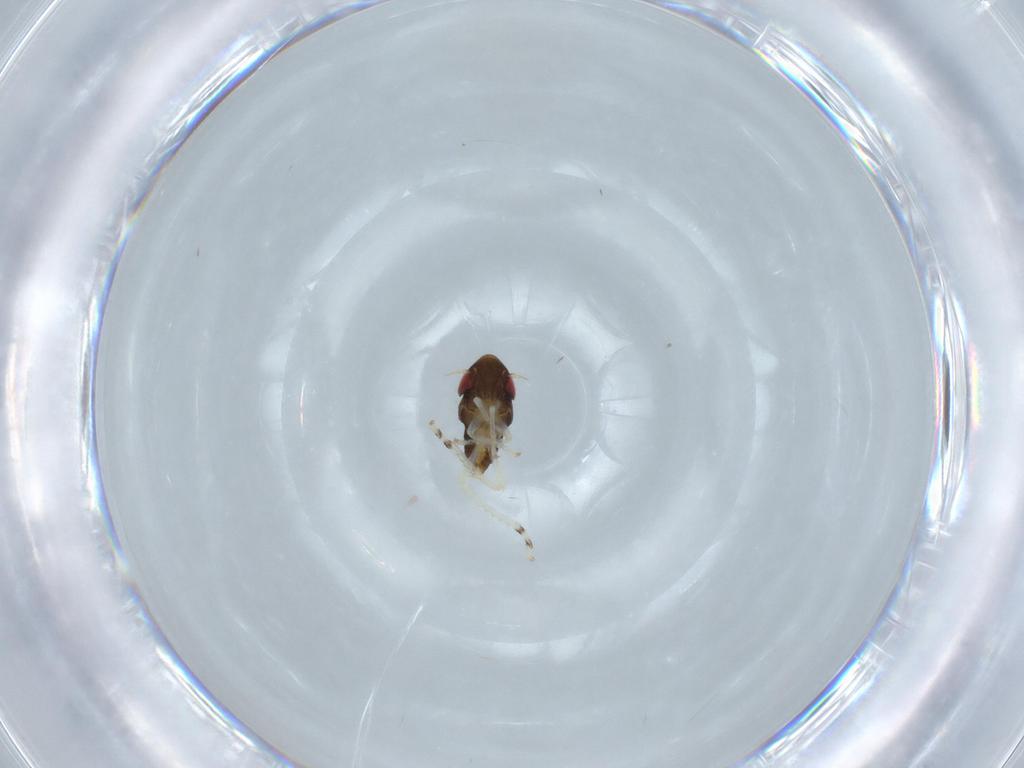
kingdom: Animalia
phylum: Arthropoda
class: Insecta
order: Hemiptera
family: Cicadellidae
